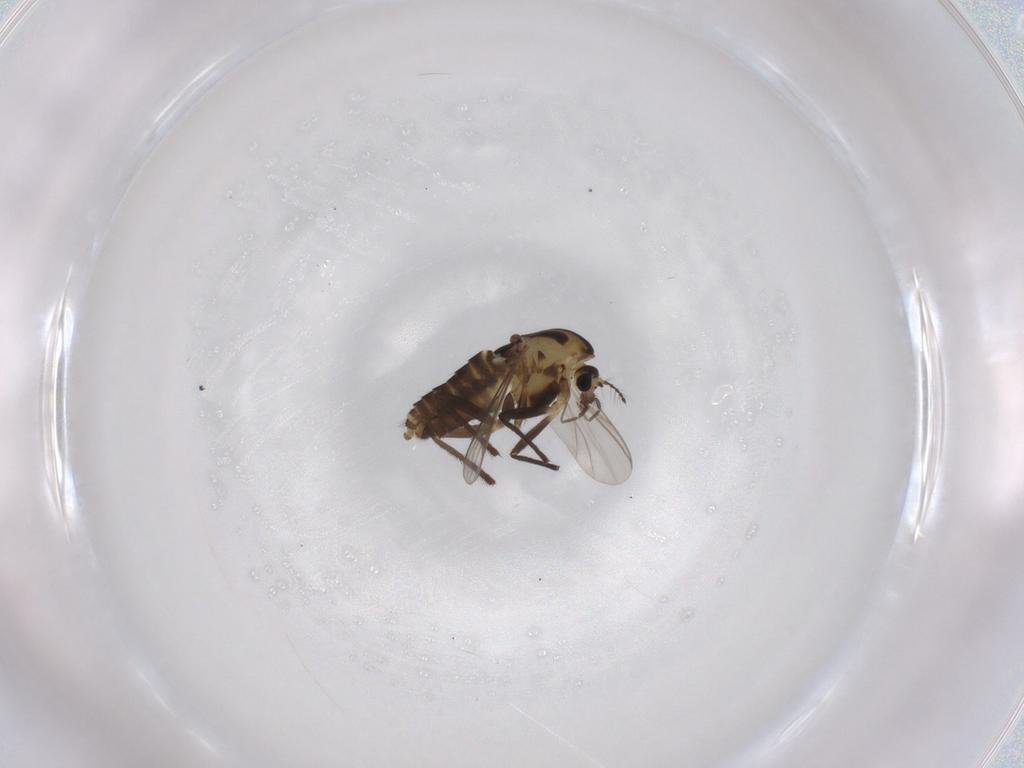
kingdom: Animalia
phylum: Arthropoda
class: Insecta
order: Diptera
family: Chironomidae
